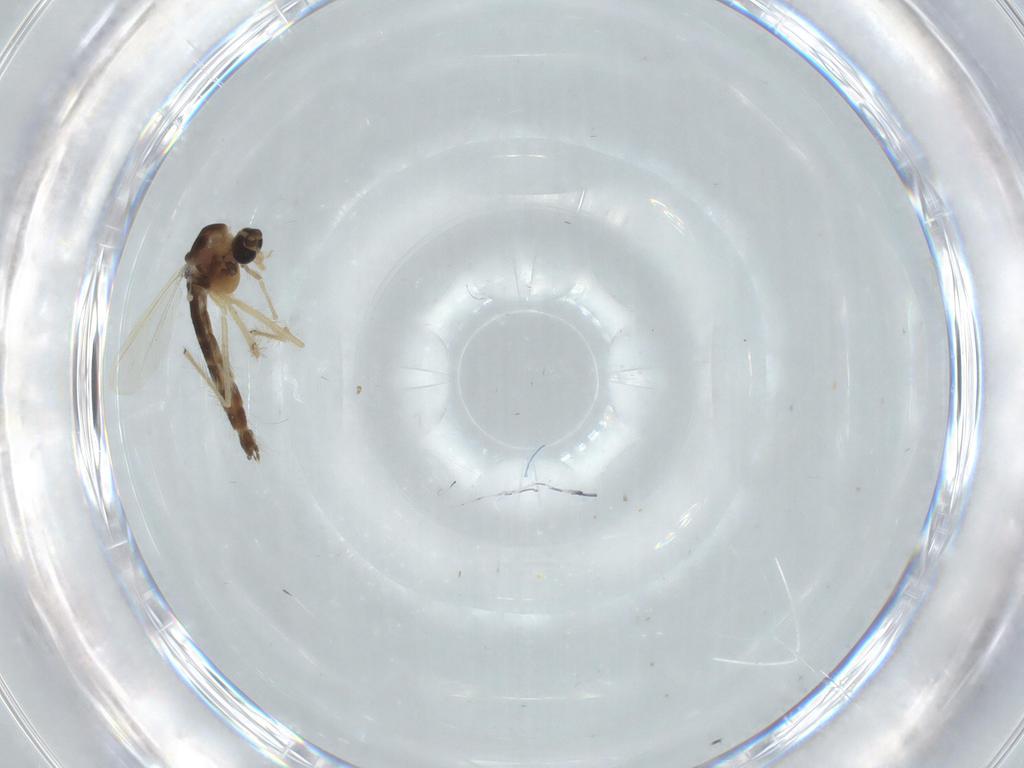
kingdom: Animalia
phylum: Arthropoda
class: Insecta
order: Diptera
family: Chironomidae
